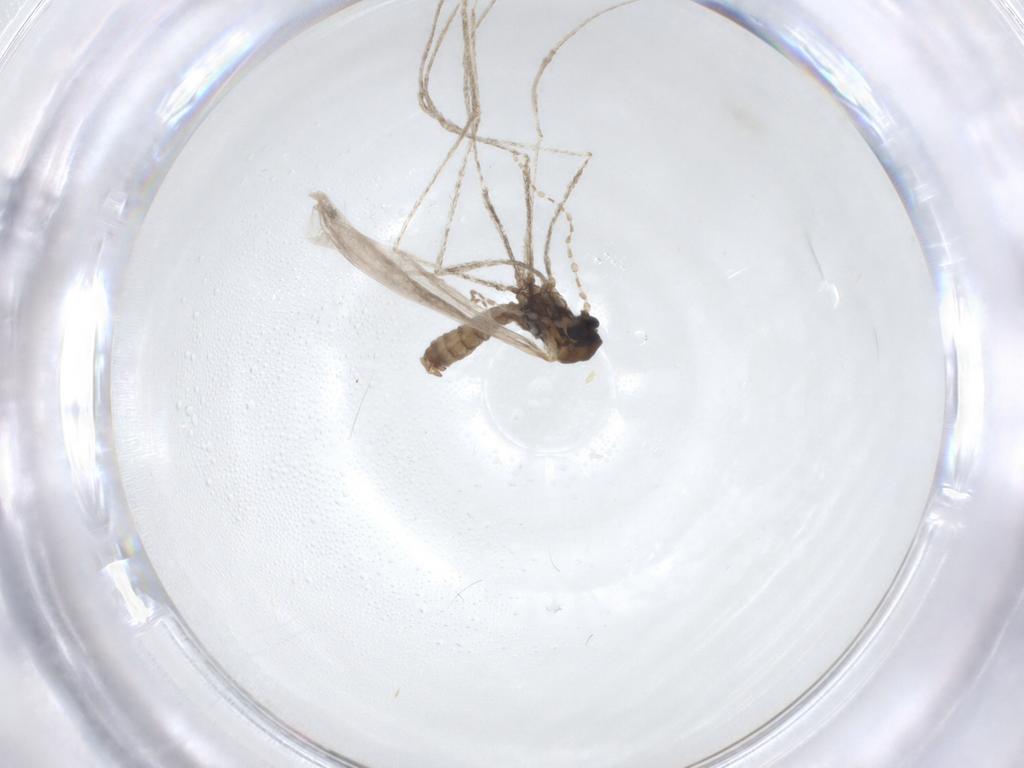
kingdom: Animalia
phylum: Arthropoda
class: Insecta
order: Diptera
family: Cecidomyiidae
